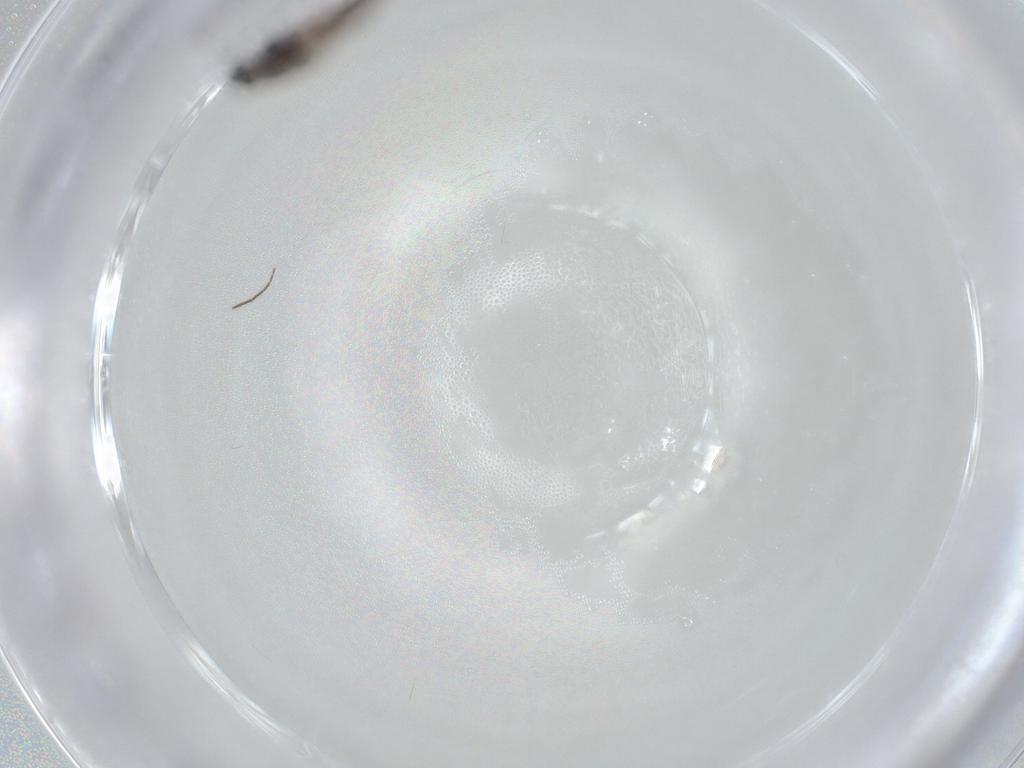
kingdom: Animalia
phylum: Arthropoda
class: Insecta
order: Diptera
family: Chironomidae
